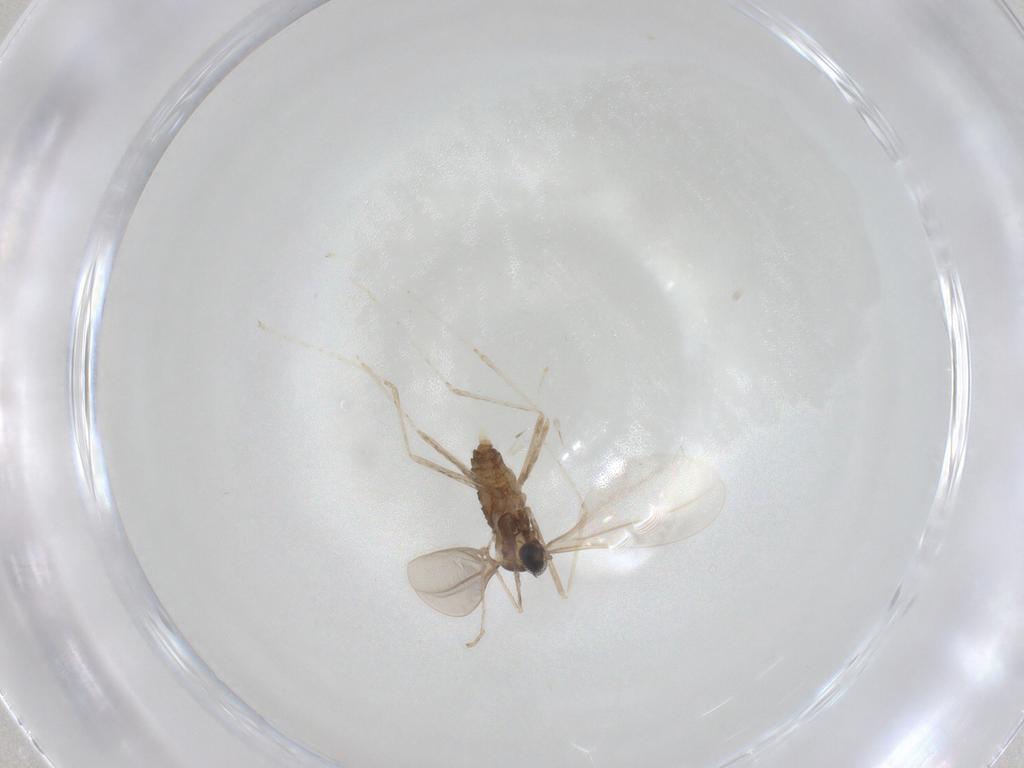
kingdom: Animalia
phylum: Arthropoda
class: Insecta
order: Diptera
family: Cecidomyiidae
